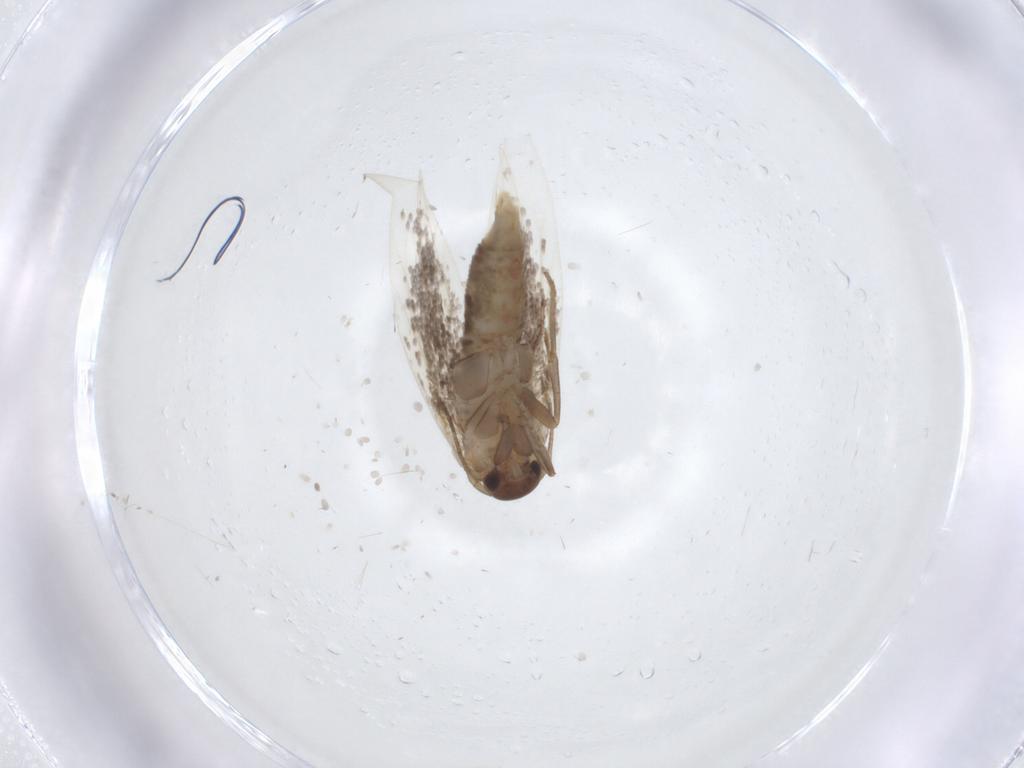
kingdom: Animalia
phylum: Arthropoda
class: Insecta
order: Lepidoptera
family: Elachistidae
